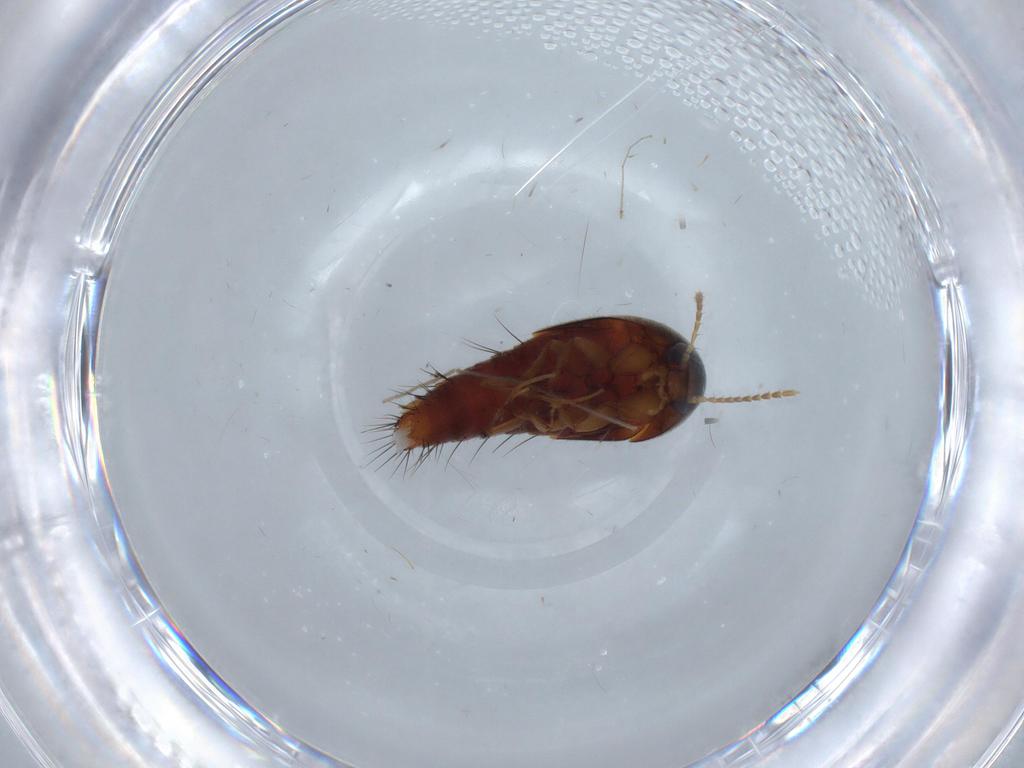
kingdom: Animalia
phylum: Arthropoda
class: Insecta
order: Coleoptera
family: Staphylinidae
